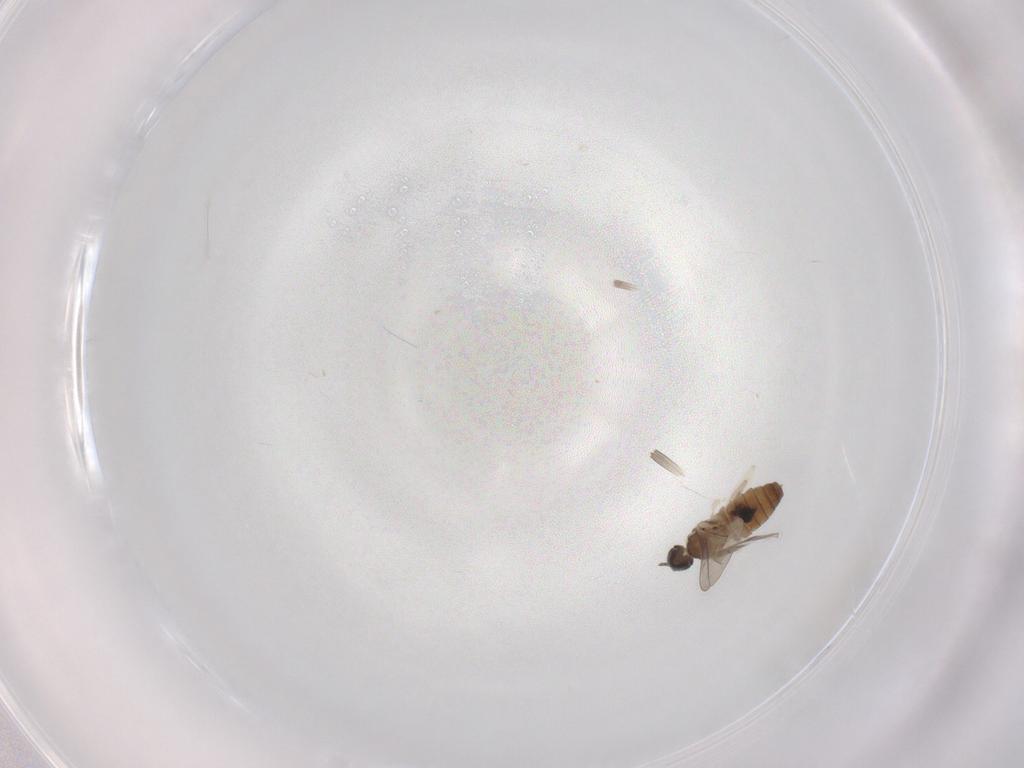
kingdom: Animalia
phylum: Arthropoda
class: Insecta
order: Diptera
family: Cecidomyiidae
